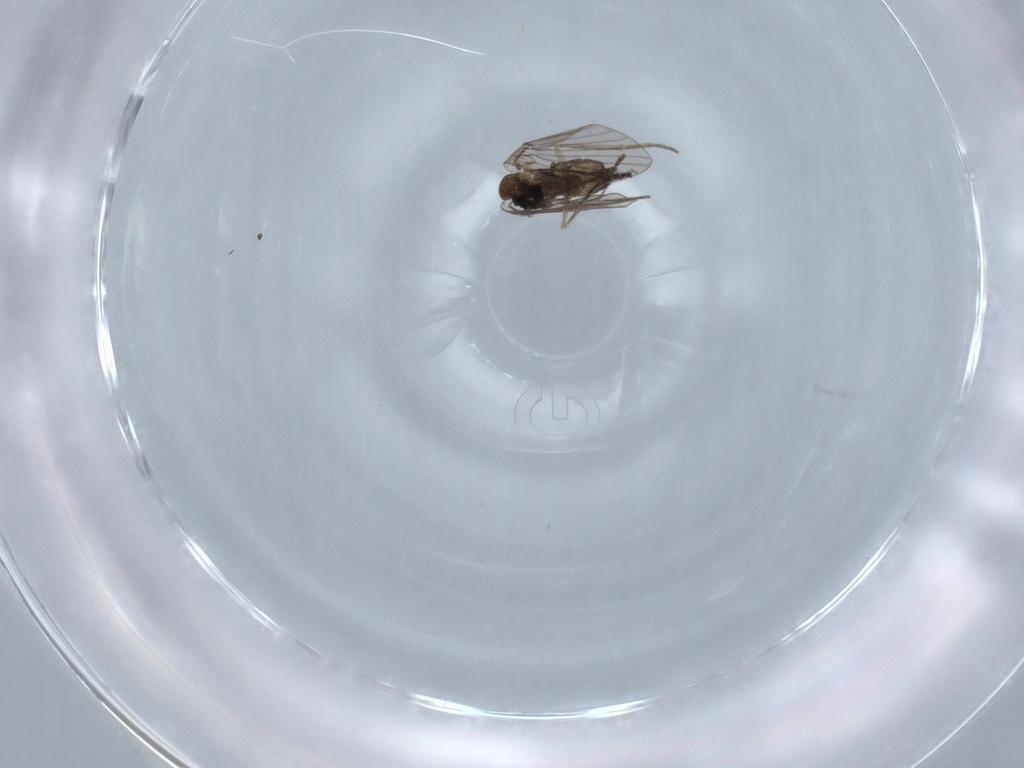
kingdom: Animalia
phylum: Arthropoda
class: Insecta
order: Diptera
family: Psychodidae
